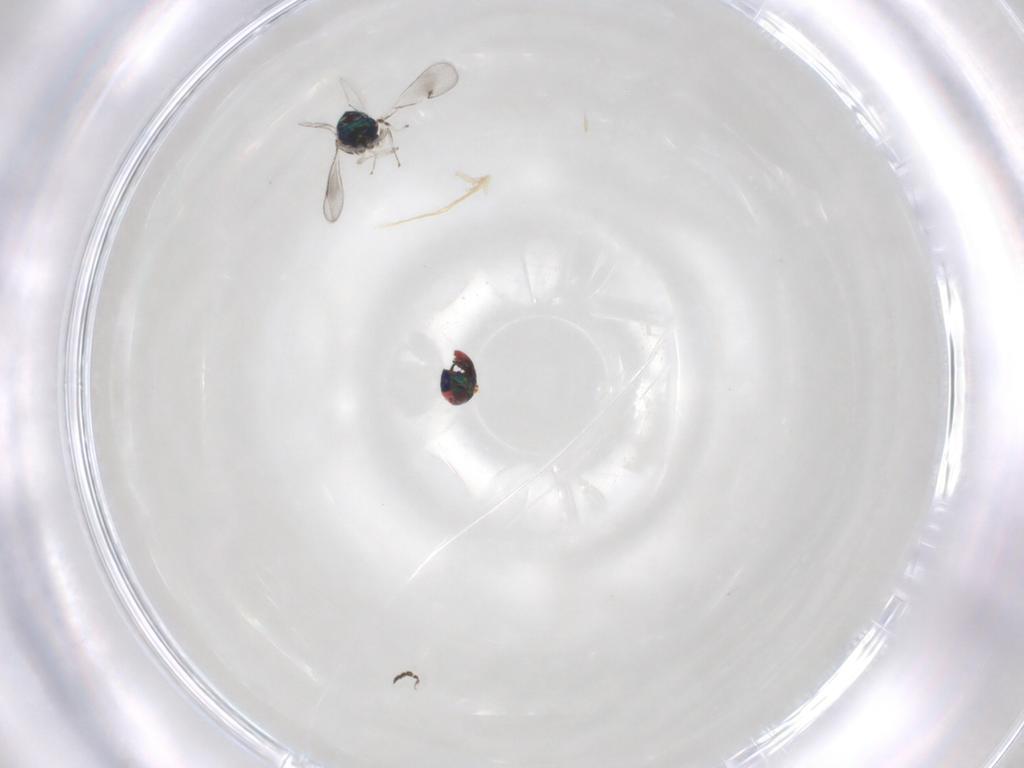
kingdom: Animalia
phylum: Arthropoda
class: Insecta
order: Hymenoptera
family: Eulophidae
